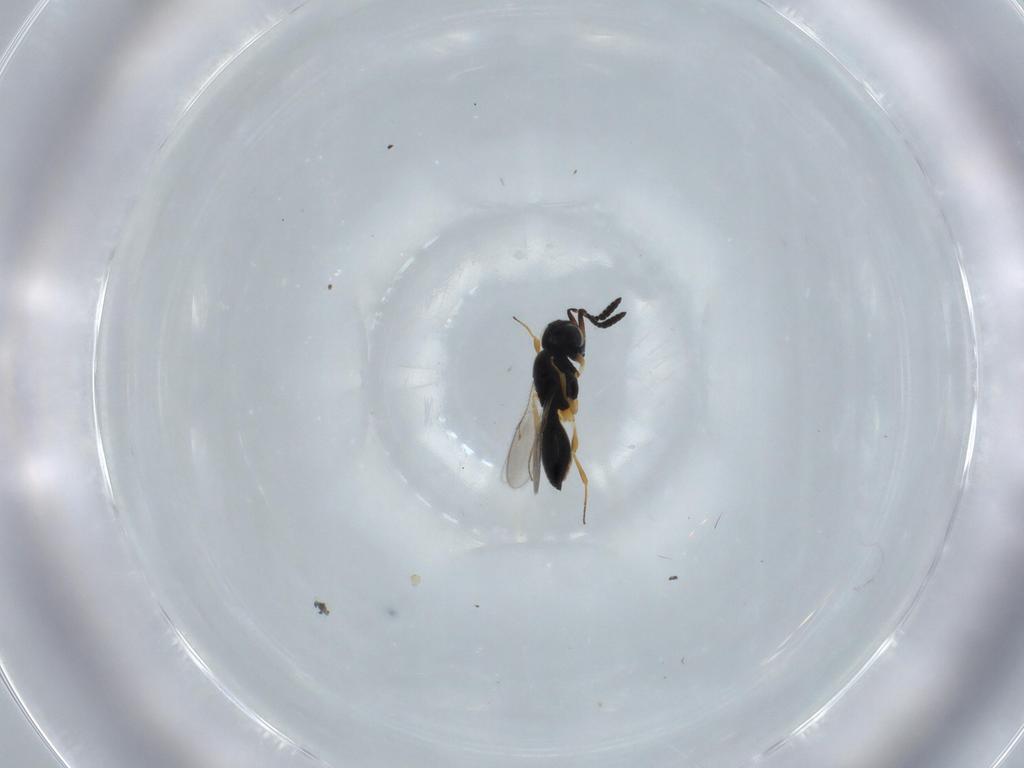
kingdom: Animalia
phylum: Arthropoda
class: Insecta
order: Hymenoptera
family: Scelionidae
